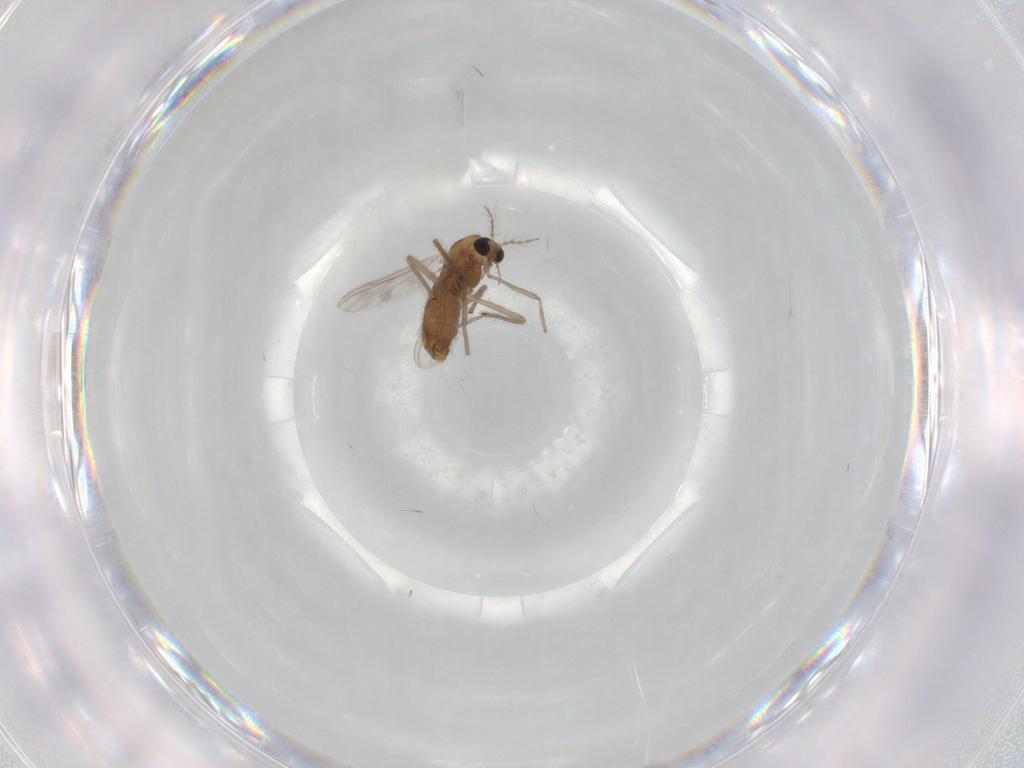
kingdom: Animalia
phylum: Arthropoda
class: Insecta
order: Diptera
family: Chironomidae
